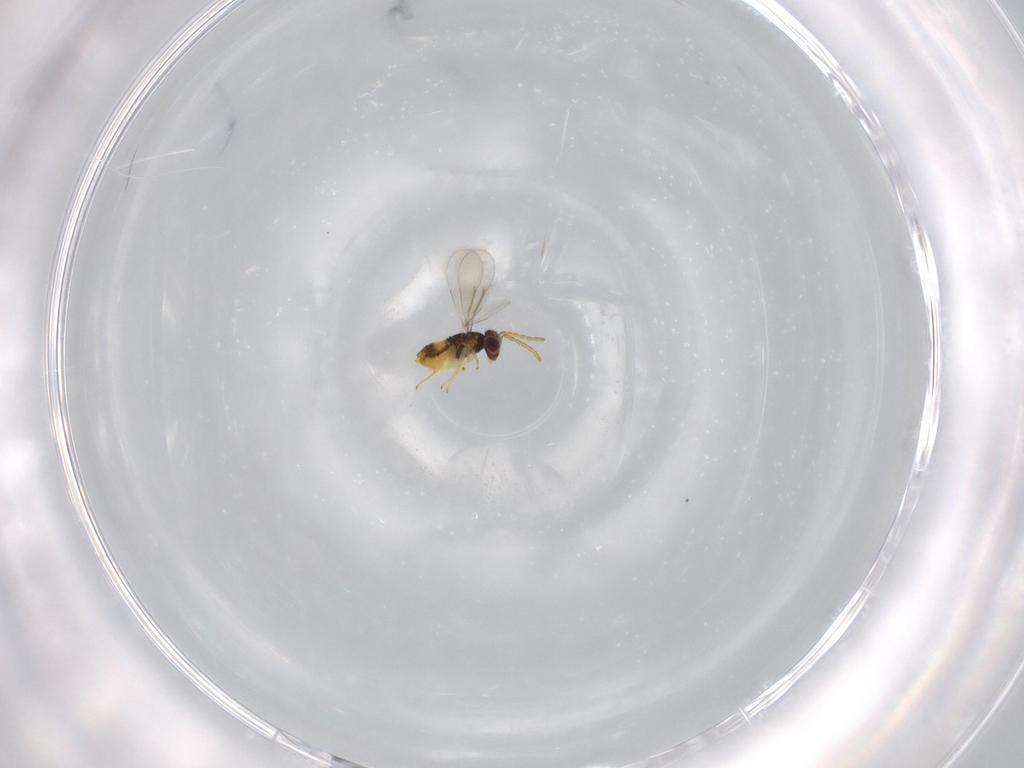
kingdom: Animalia
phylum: Arthropoda
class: Insecta
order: Hymenoptera
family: Aphelinidae
